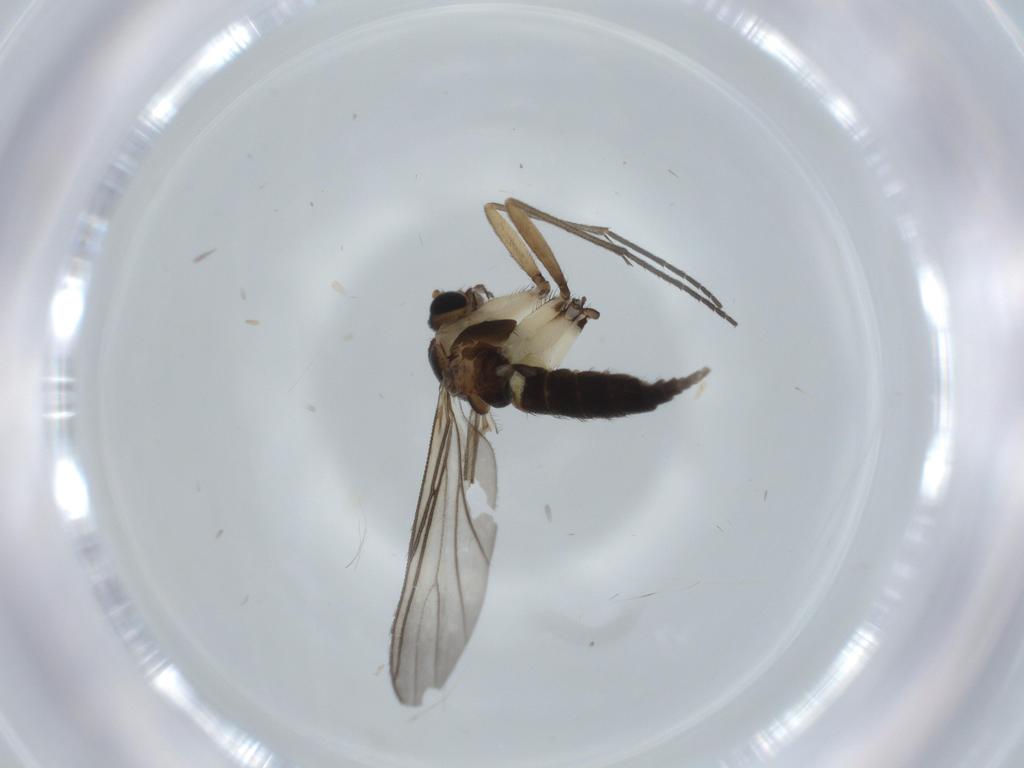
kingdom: Animalia
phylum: Arthropoda
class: Insecta
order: Diptera
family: Sciaridae
